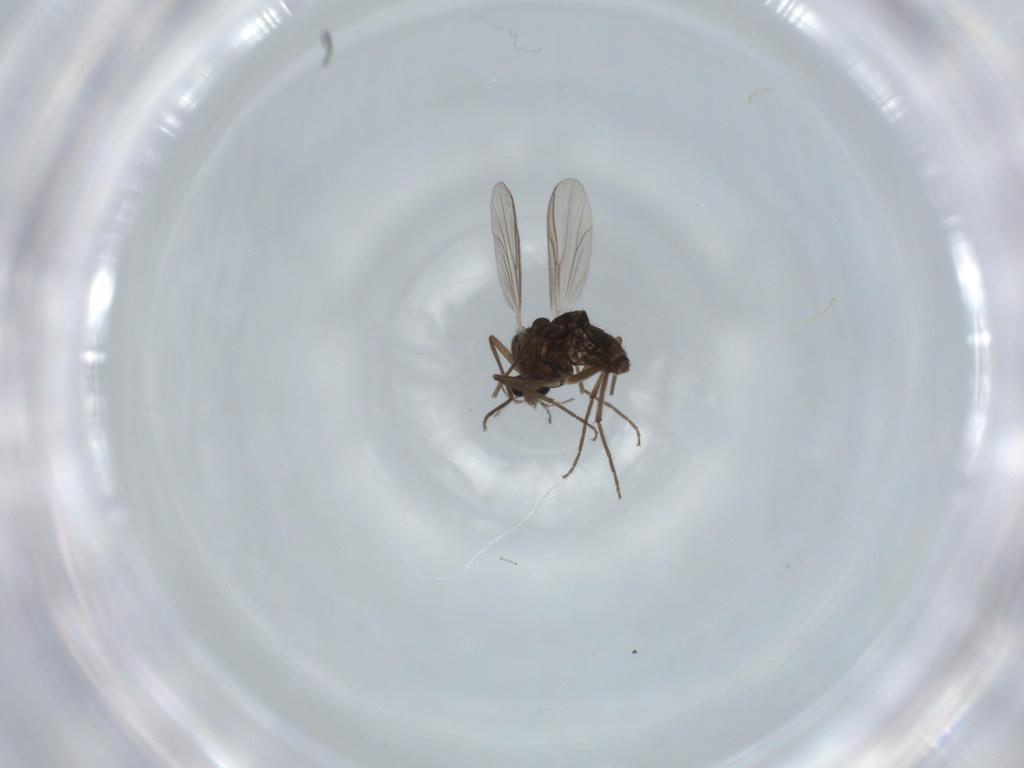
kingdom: Animalia
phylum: Arthropoda
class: Insecta
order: Diptera
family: Chironomidae
